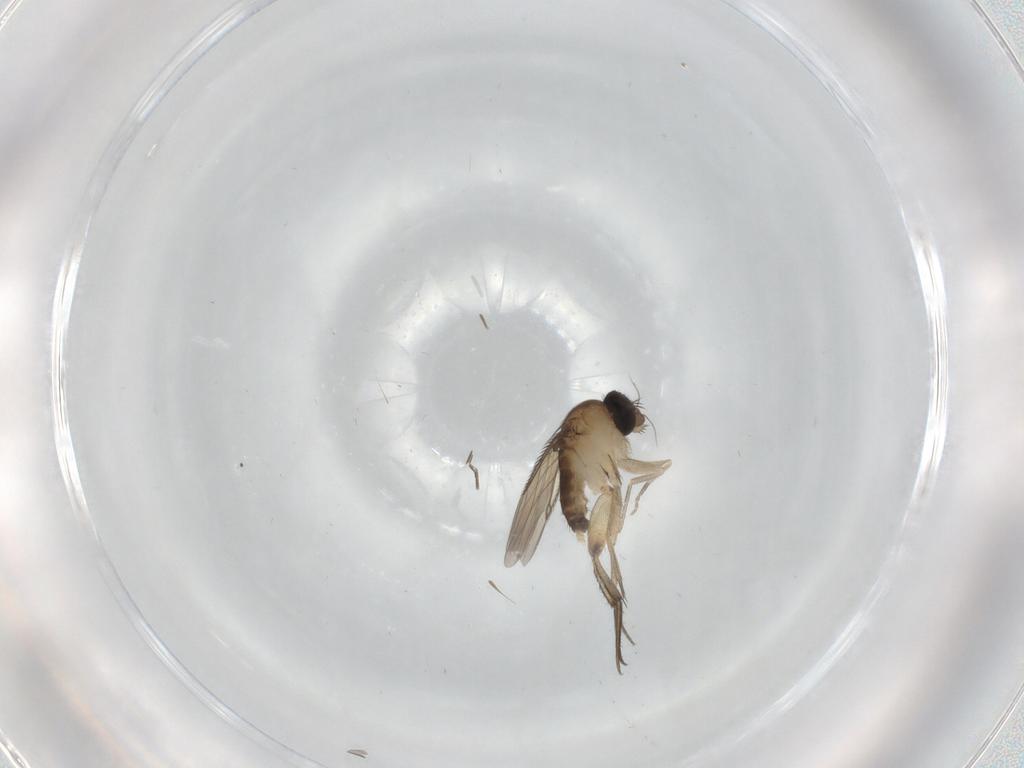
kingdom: Animalia
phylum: Arthropoda
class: Insecta
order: Diptera
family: Phoridae
